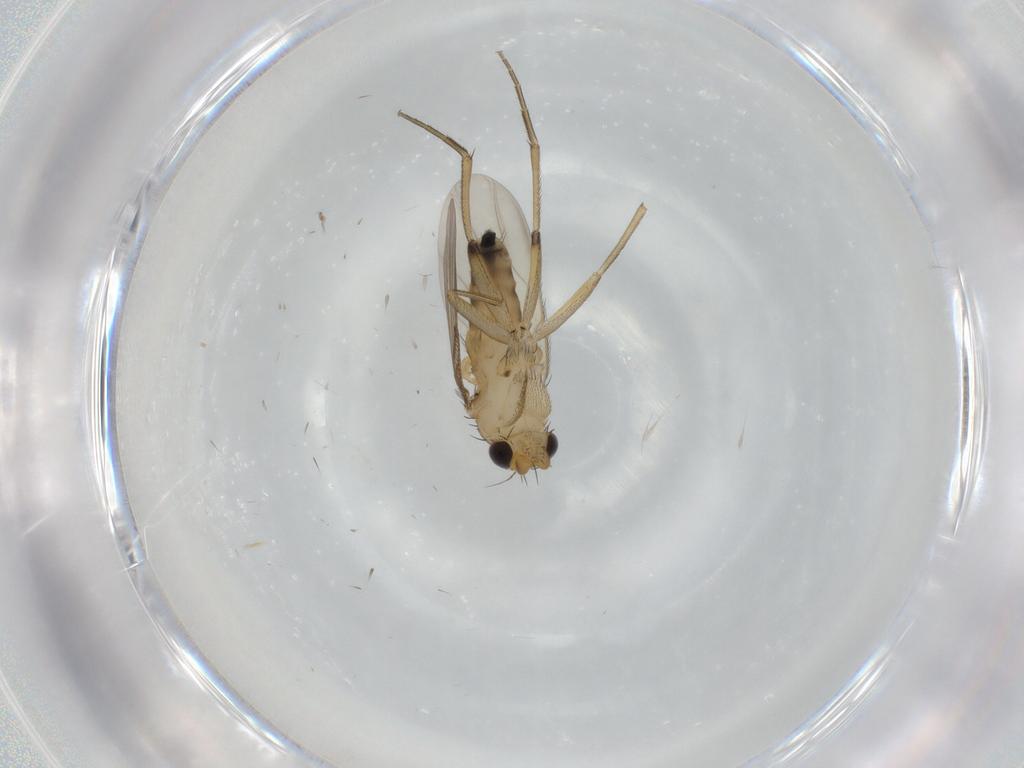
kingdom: Animalia
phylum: Arthropoda
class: Insecta
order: Diptera
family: Phoridae
